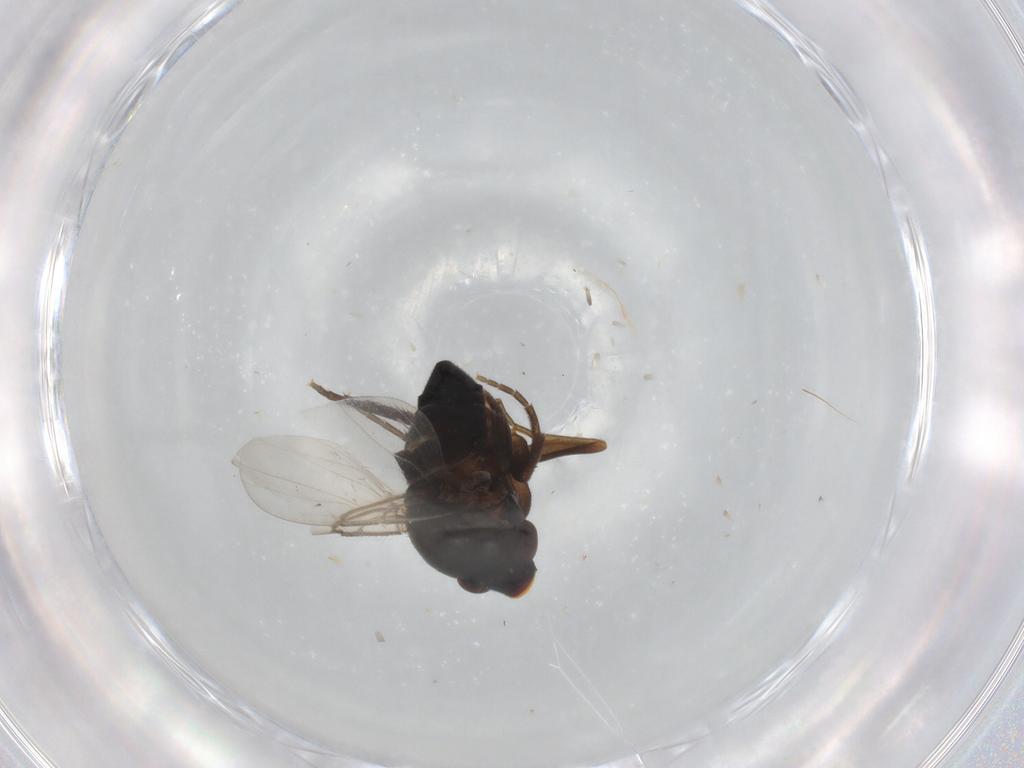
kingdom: Animalia
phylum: Arthropoda
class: Insecta
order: Diptera
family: Phoridae
